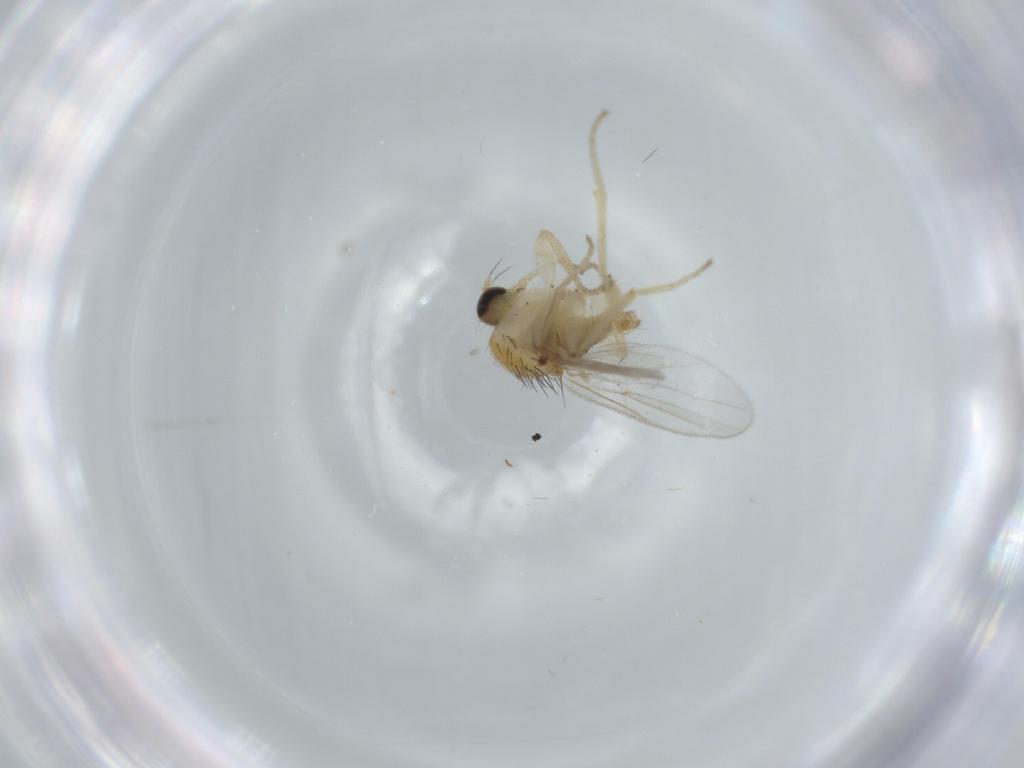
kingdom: Animalia
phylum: Arthropoda
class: Insecta
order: Diptera
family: Hybotidae
